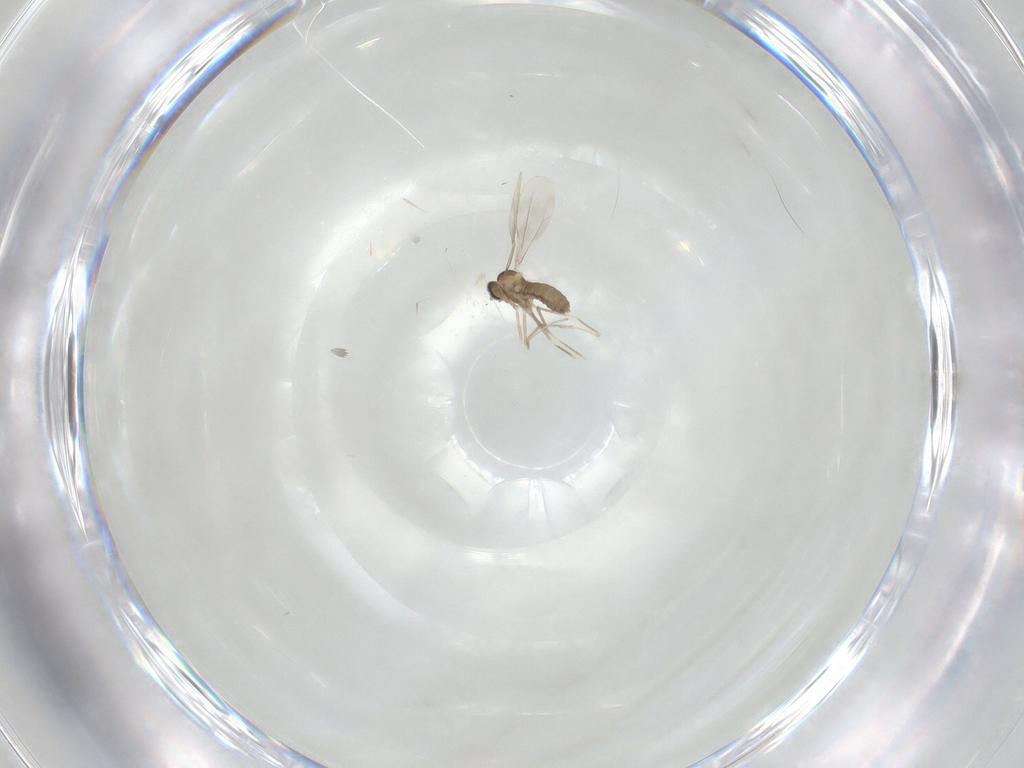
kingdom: Animalia
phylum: Arthropoda
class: Insecta
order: Diptera
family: Cecidomyiidae
